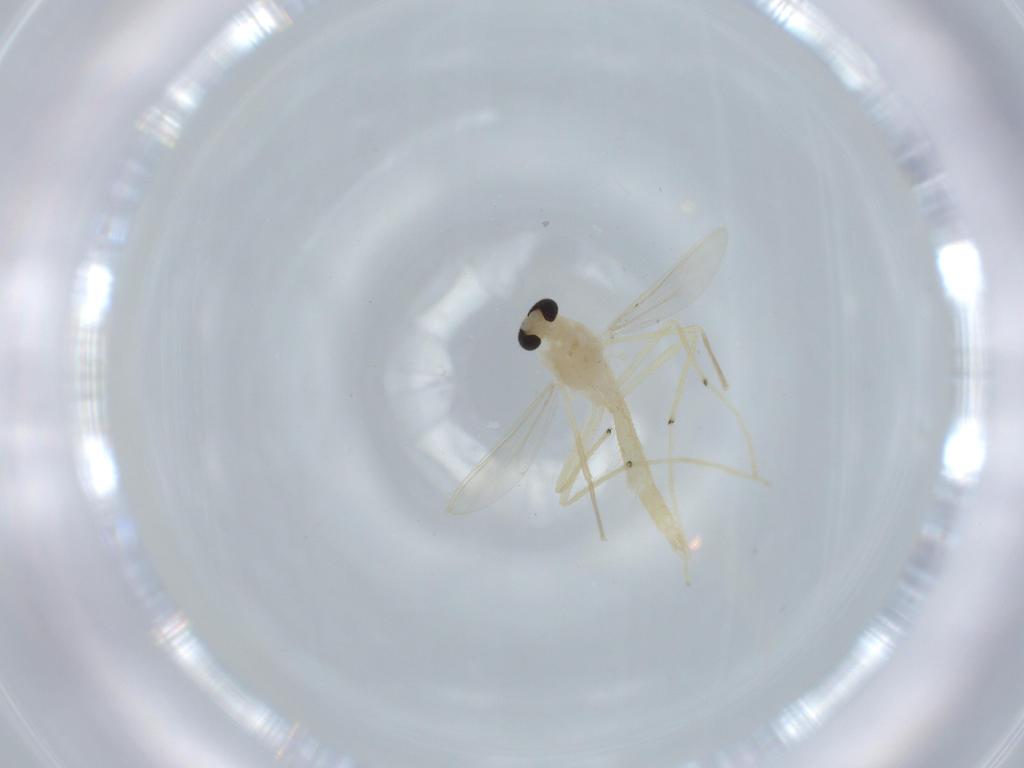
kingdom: Animalia
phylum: Arthropoda
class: Insecta
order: Diptera
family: Chironomidae
